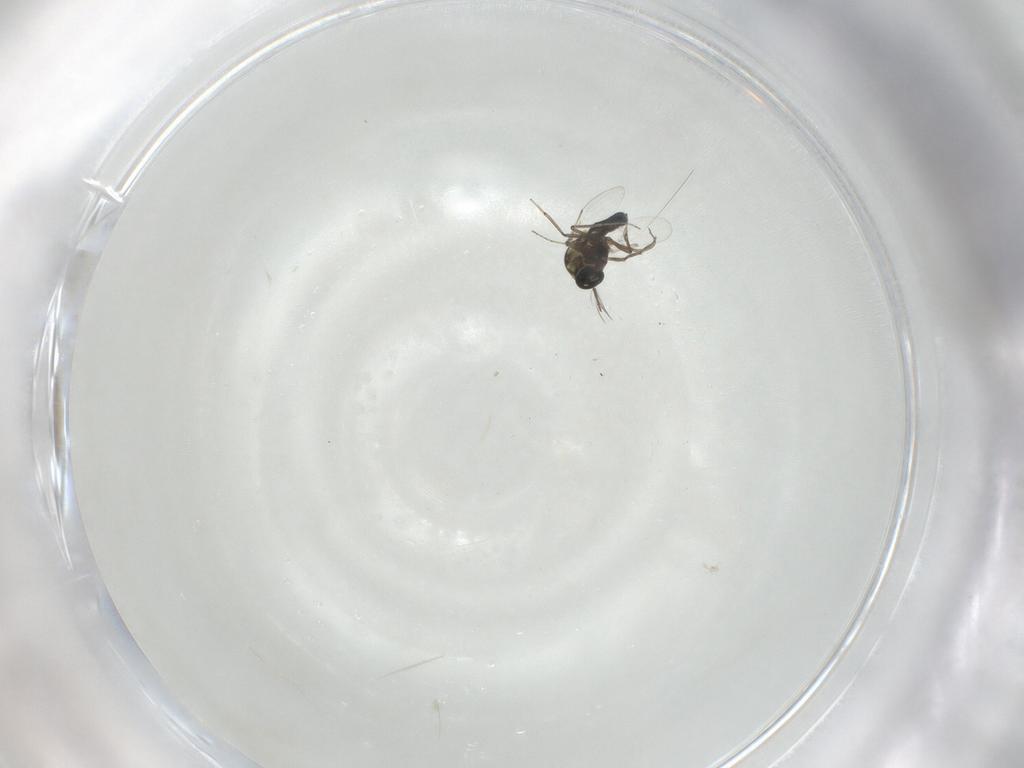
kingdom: Animalia
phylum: Arthropoda
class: Insecta
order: Diptera
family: Ceratopogonidae
